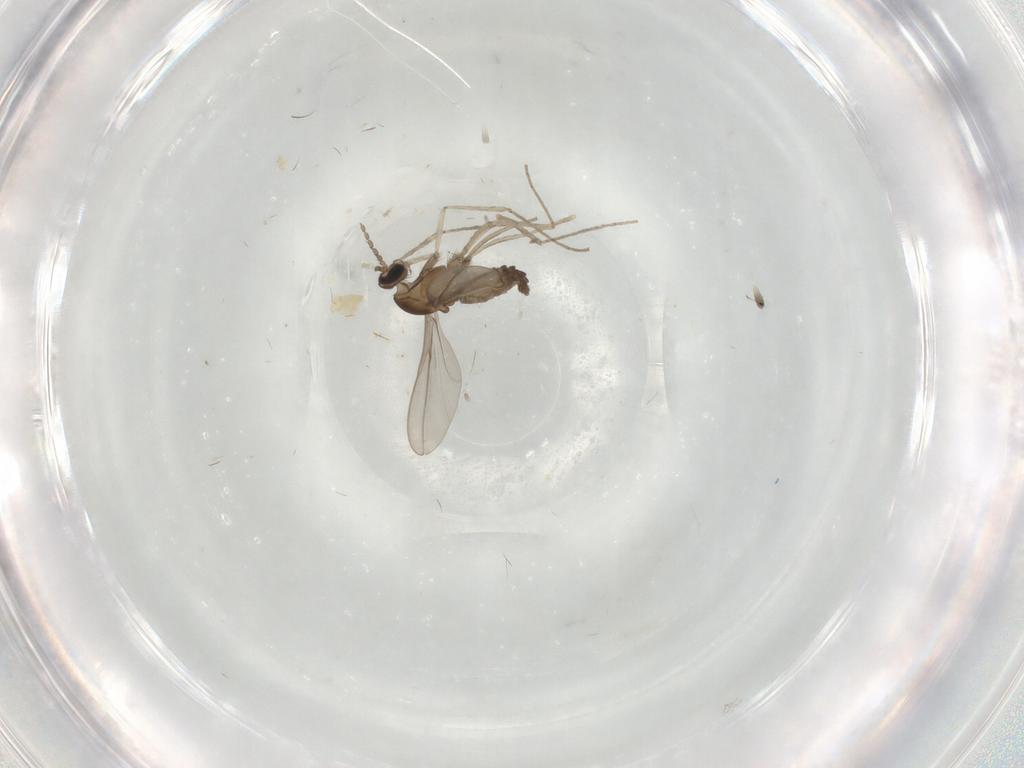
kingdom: Animalia
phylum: Arthropoda
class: Insecta
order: Diptera
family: Cecidomyiidae
